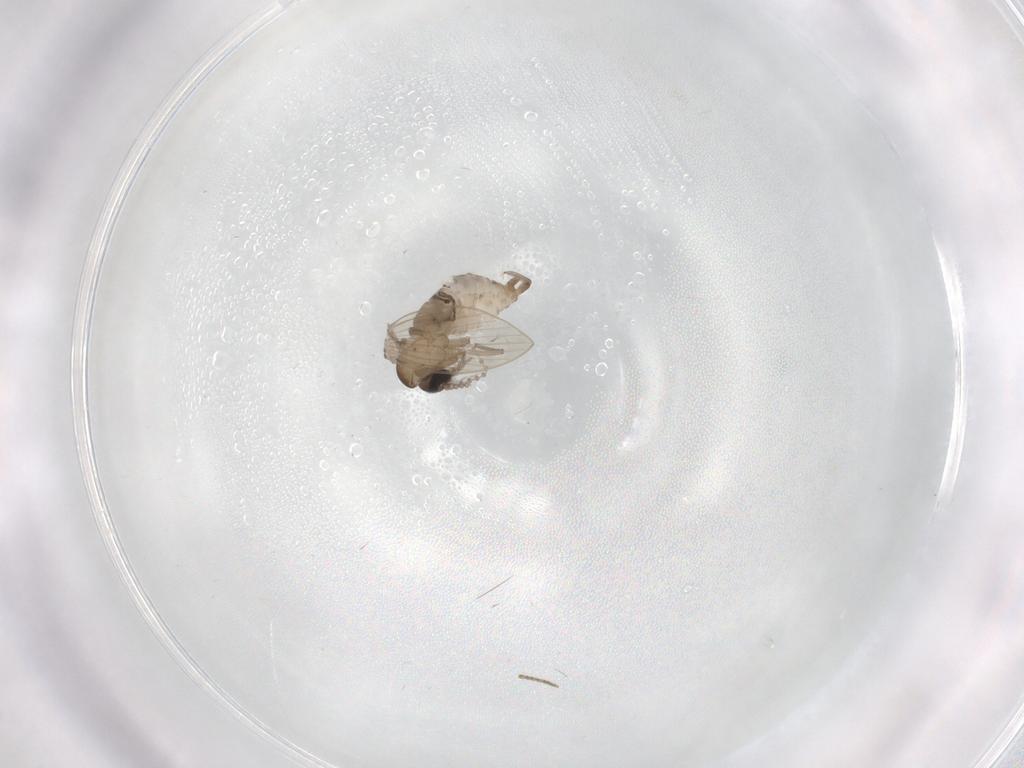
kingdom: Animalia
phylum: Arthropoda
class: Insecta
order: Diptera
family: Psychodidae
